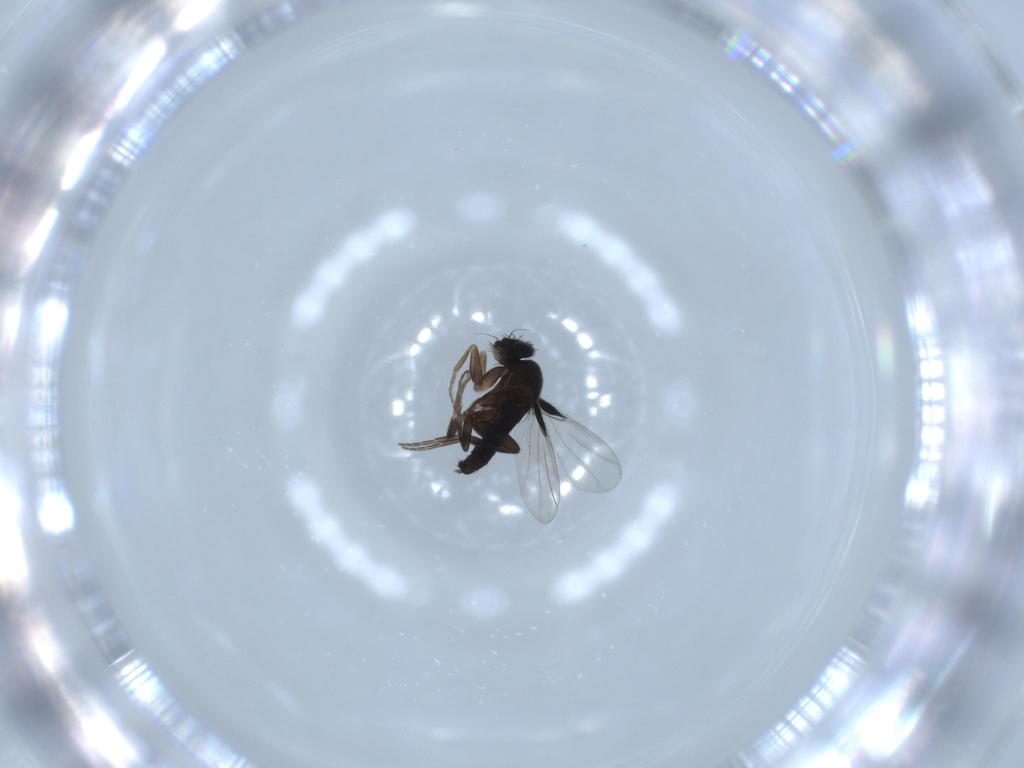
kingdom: Animalia
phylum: Arthropoda
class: Insecta
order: Diptera
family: Phoridae
